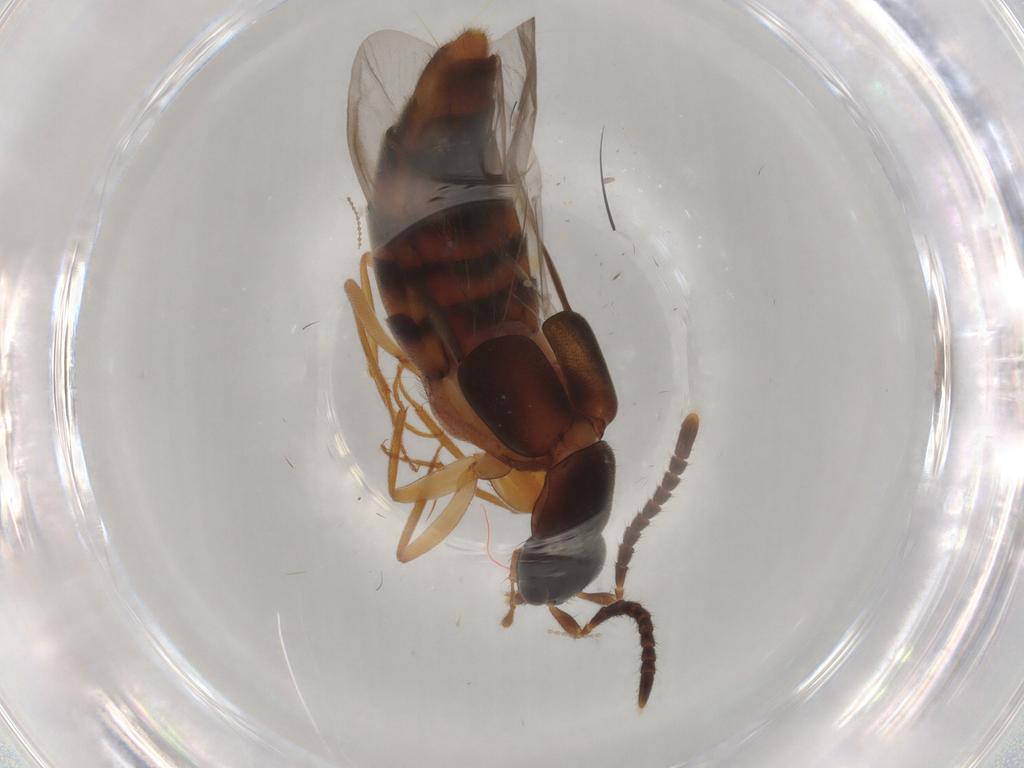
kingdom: Animalia
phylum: Arthropoda
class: Insecta
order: Coleoptera
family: Staphylinidae
